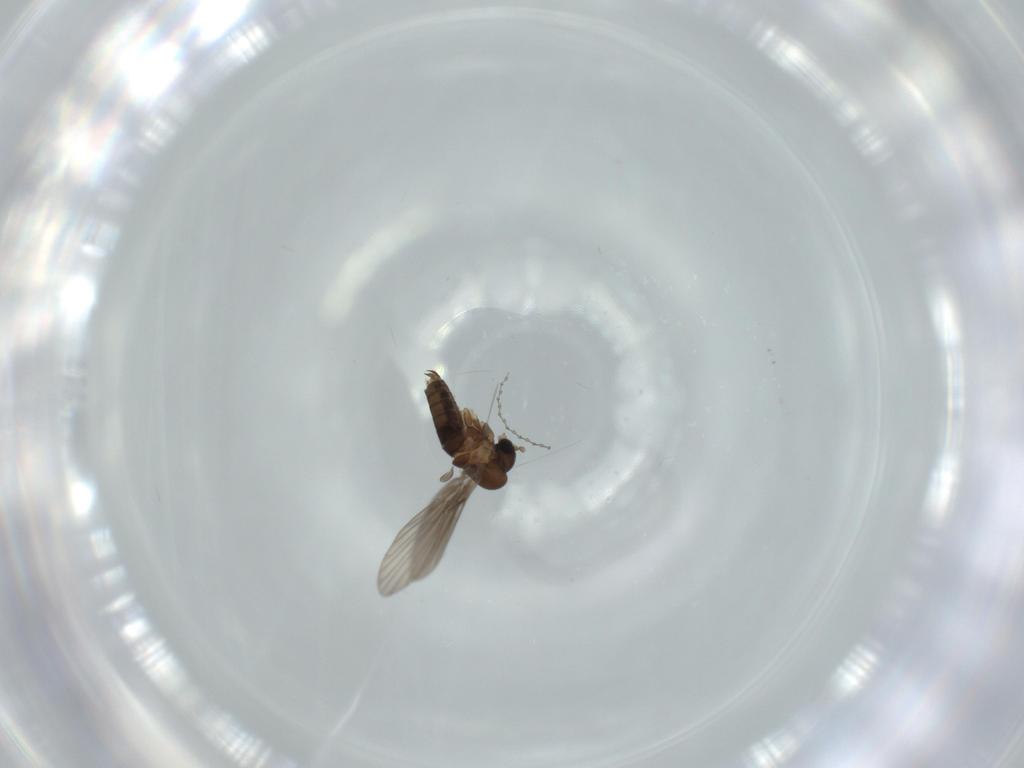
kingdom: Animalia
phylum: Arthropoda
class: Insecta
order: Diptera
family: Cecidomyiidae
